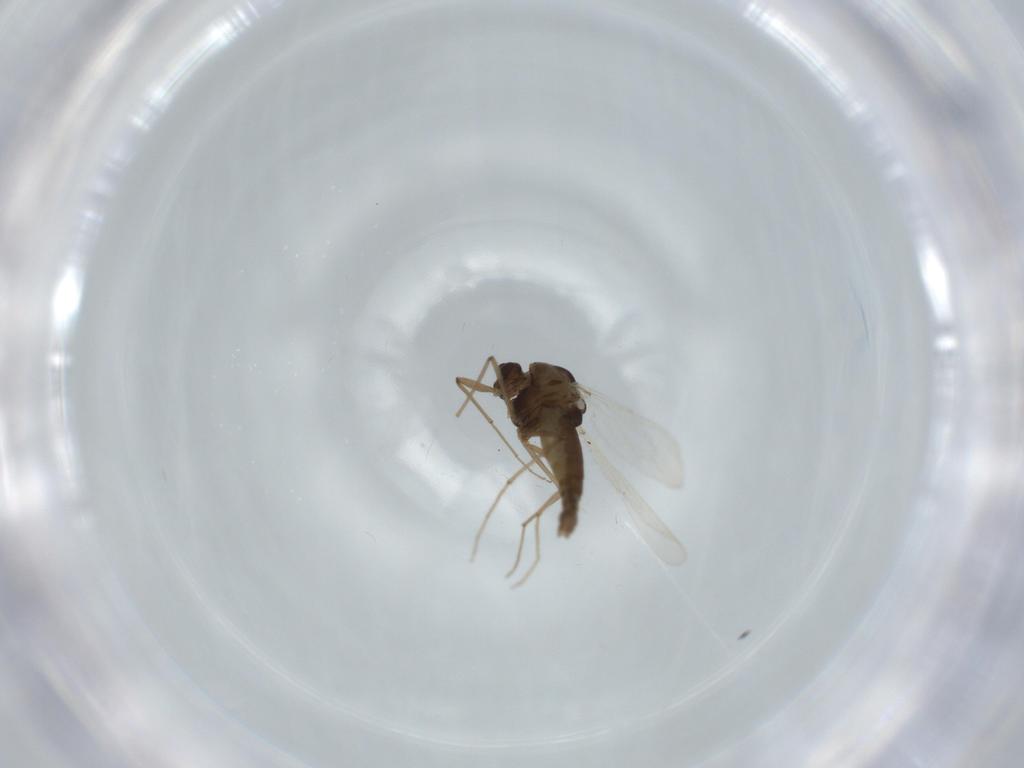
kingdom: Animalia
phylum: Arthropoda
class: Insecta
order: Diptera
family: Chironomidae
